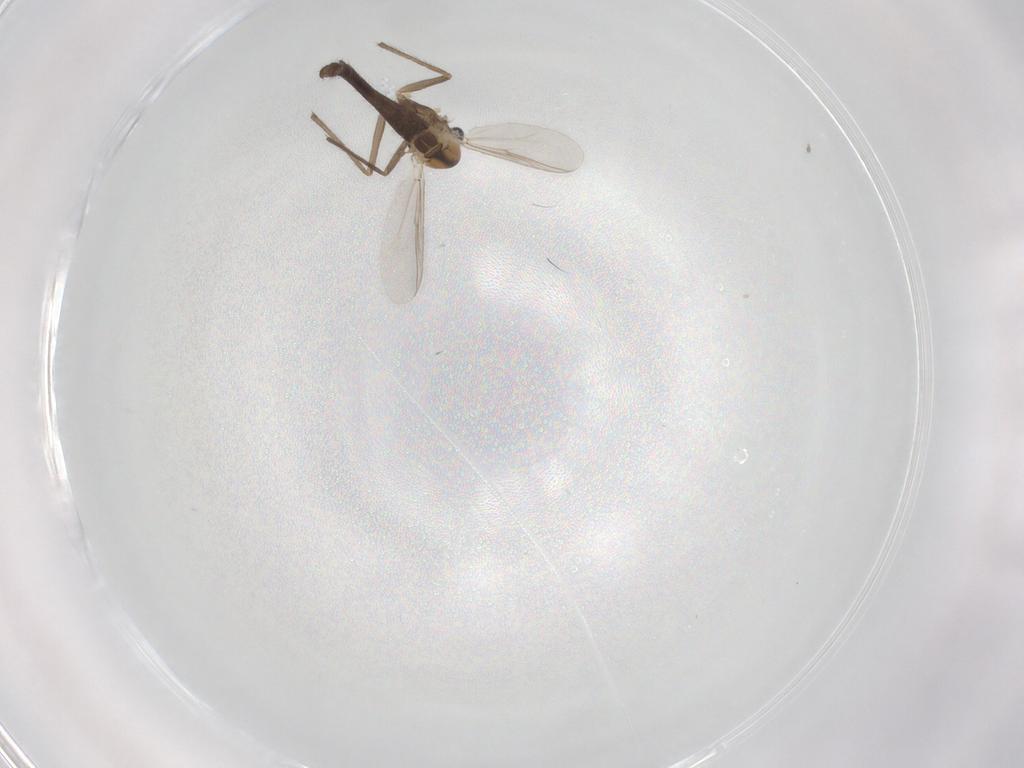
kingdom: Animalia
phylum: Arthropoda
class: Insecta
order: Diptera
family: Chironomidae
